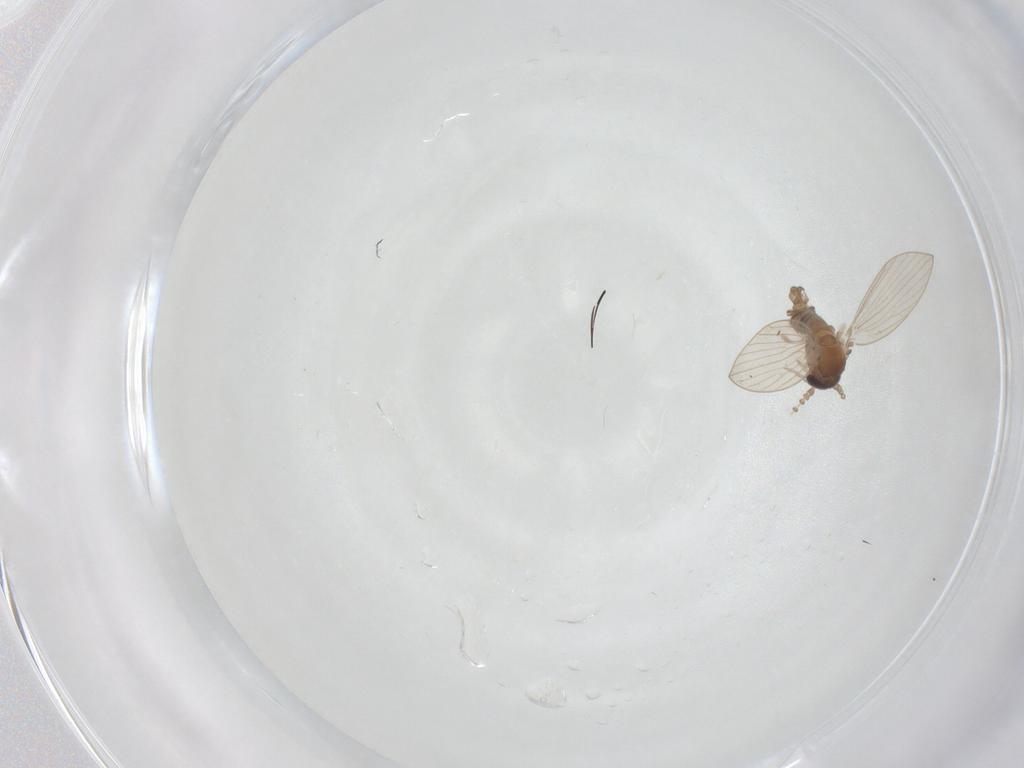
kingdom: Animalia
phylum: Arthropoda
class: Insecta
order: Diptera
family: Psychodidae
